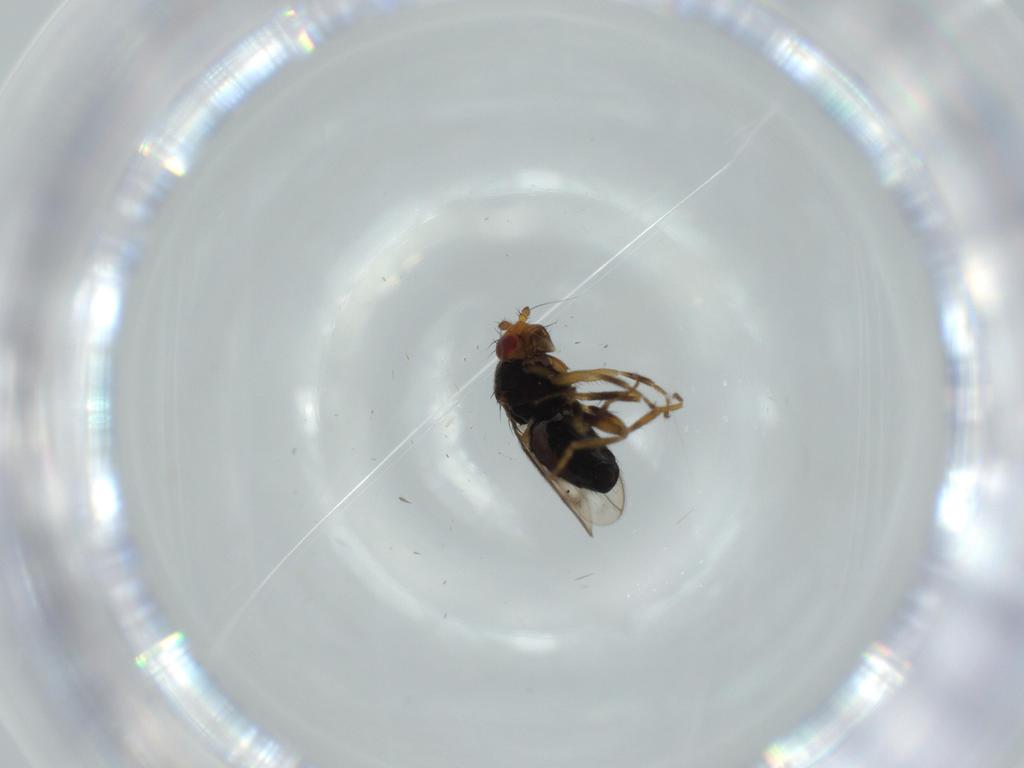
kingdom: Animalia
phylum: Arthropoda
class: Insecta
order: Diptera
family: Sphaeroceridae
